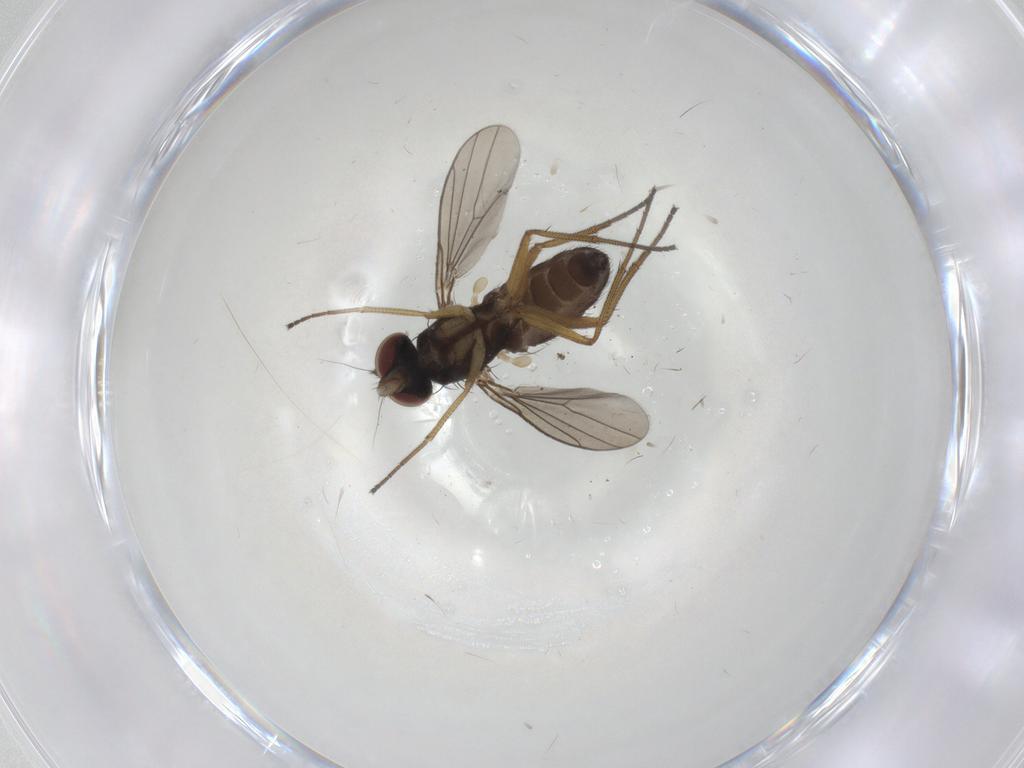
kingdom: Animalia
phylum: Arthropoda
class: Insecta
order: Diptera
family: Dolichopodidae
